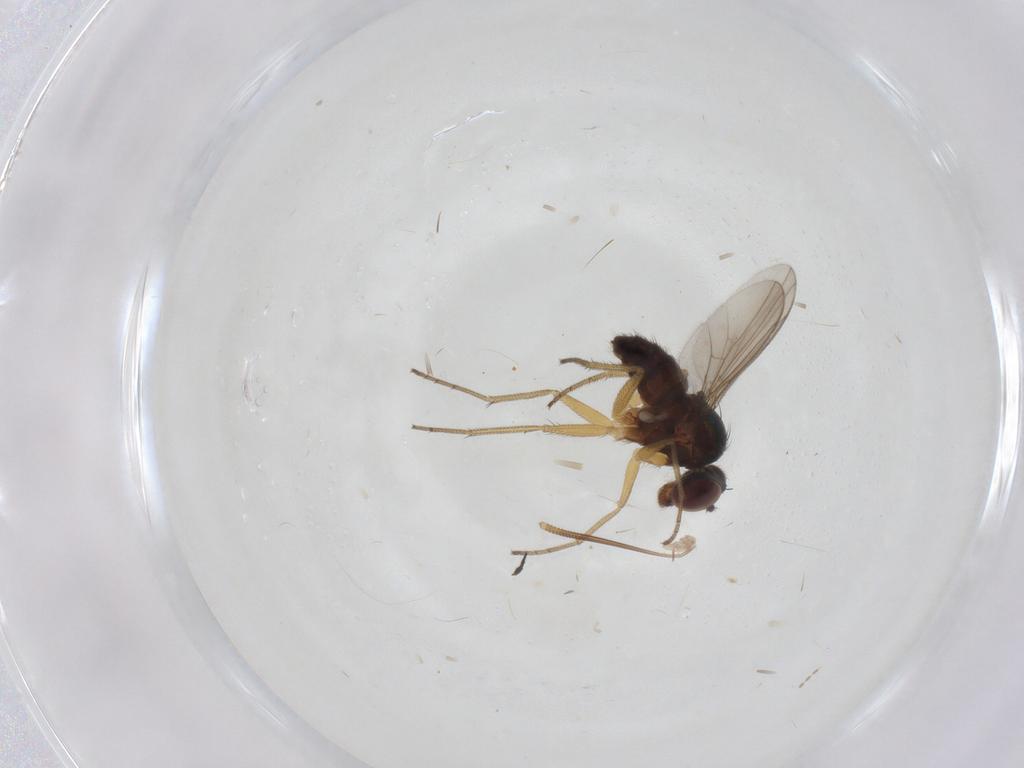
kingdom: Animalia
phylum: Arthropoda
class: Insecta
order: Diptera
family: Dolichopodidae
